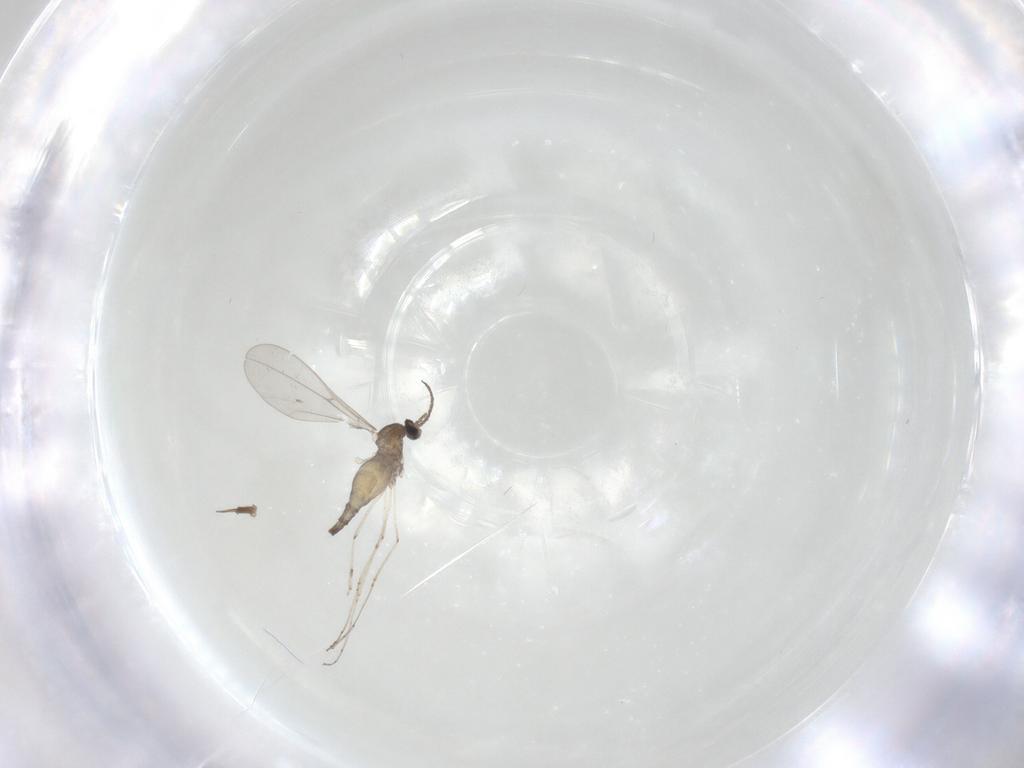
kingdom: Animalia
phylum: Arthropoda
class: Insecta
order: Diptera
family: Cecidomyiidae
